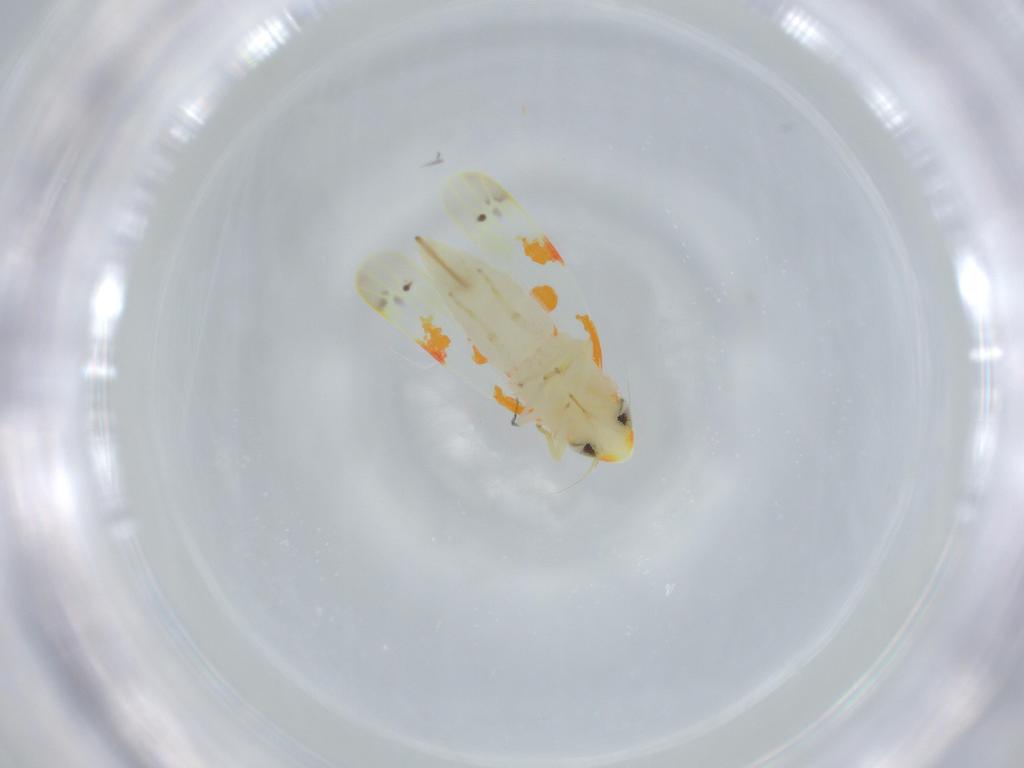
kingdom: Animalia
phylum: Arthropoda
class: Insecta
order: Hemiptera
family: Cicadellidae
